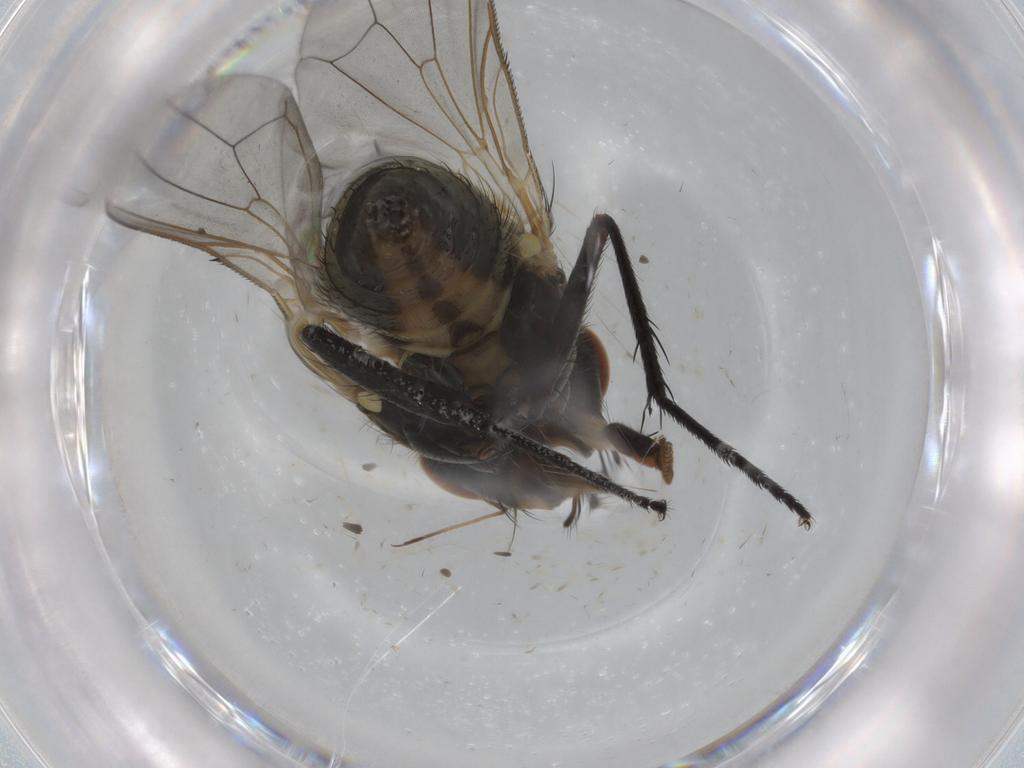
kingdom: Animalia
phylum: Arthropoda
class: Insecta
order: Diptera
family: Anthomyiidae
